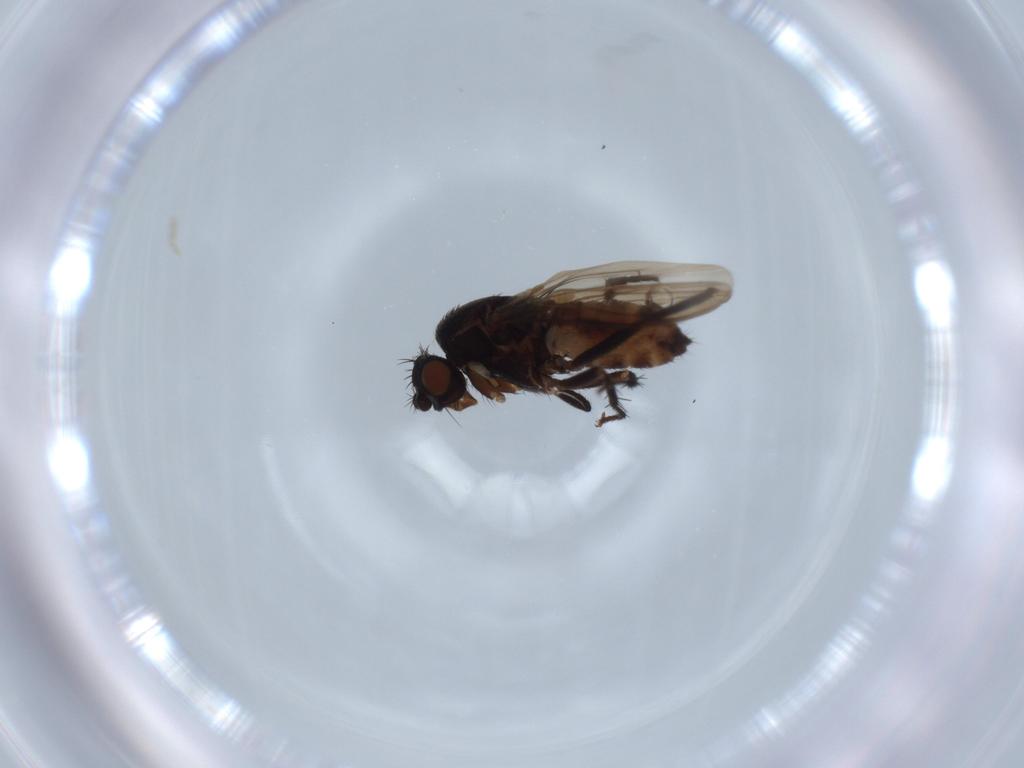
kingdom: Animalia
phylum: Arthropoda
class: Insecta
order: Diptera
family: Sphaeroceridae
